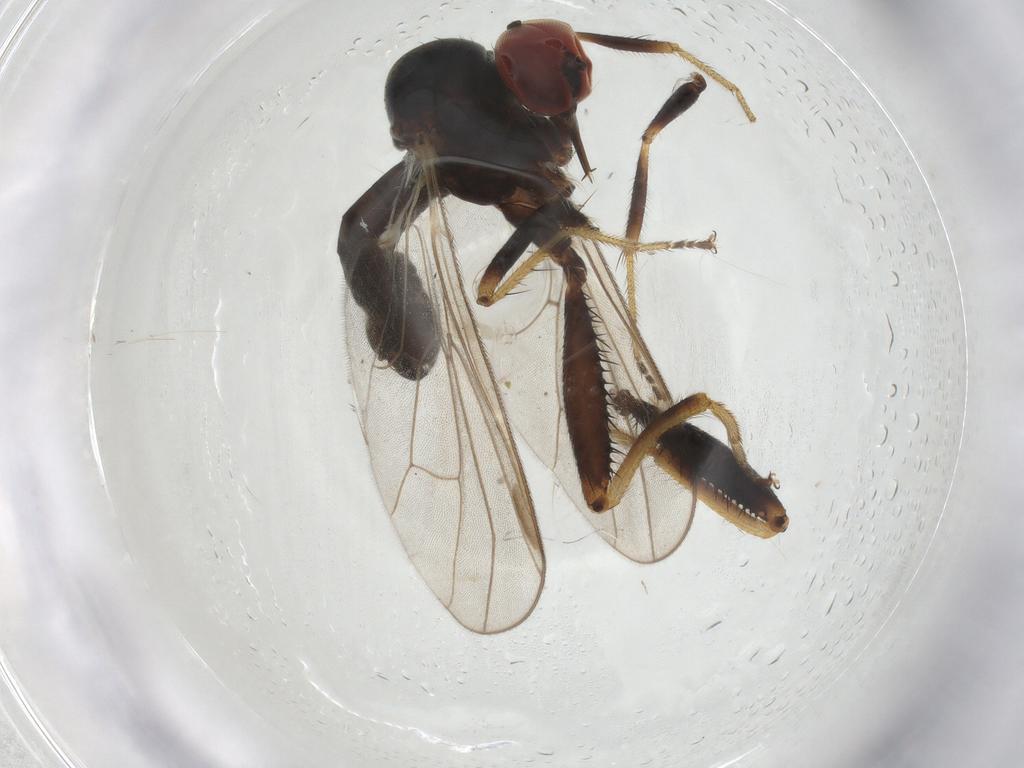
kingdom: Animalia
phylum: Arthropoda
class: Insecta
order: Diptera
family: Hybotidae
